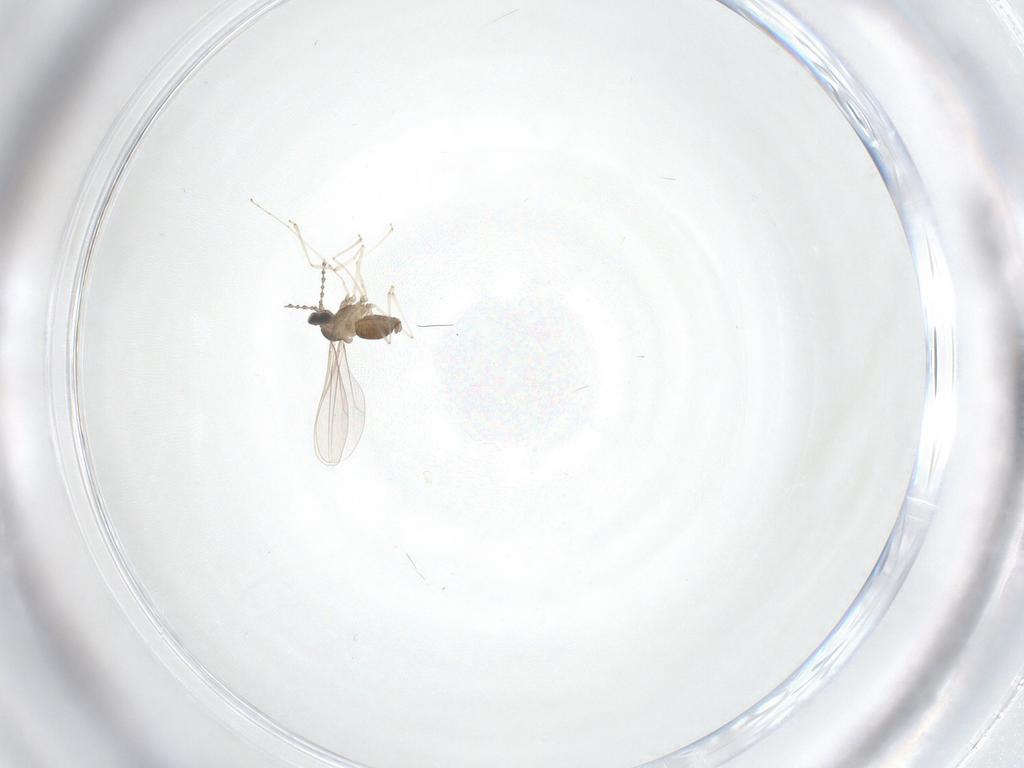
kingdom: Animalia
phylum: Arthropoda
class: Insecta
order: Diptera
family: Cecidomyiidae
